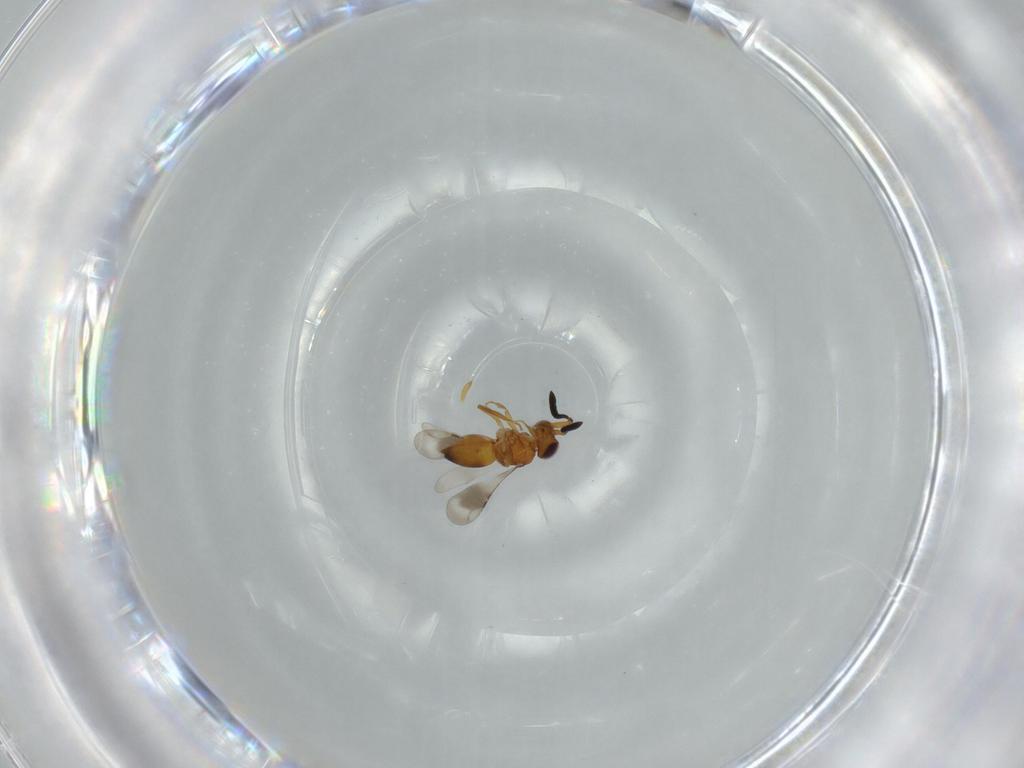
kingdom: Animalia
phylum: Arthropoda
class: Insecta
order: Hymenoptera
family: Scelionidae
